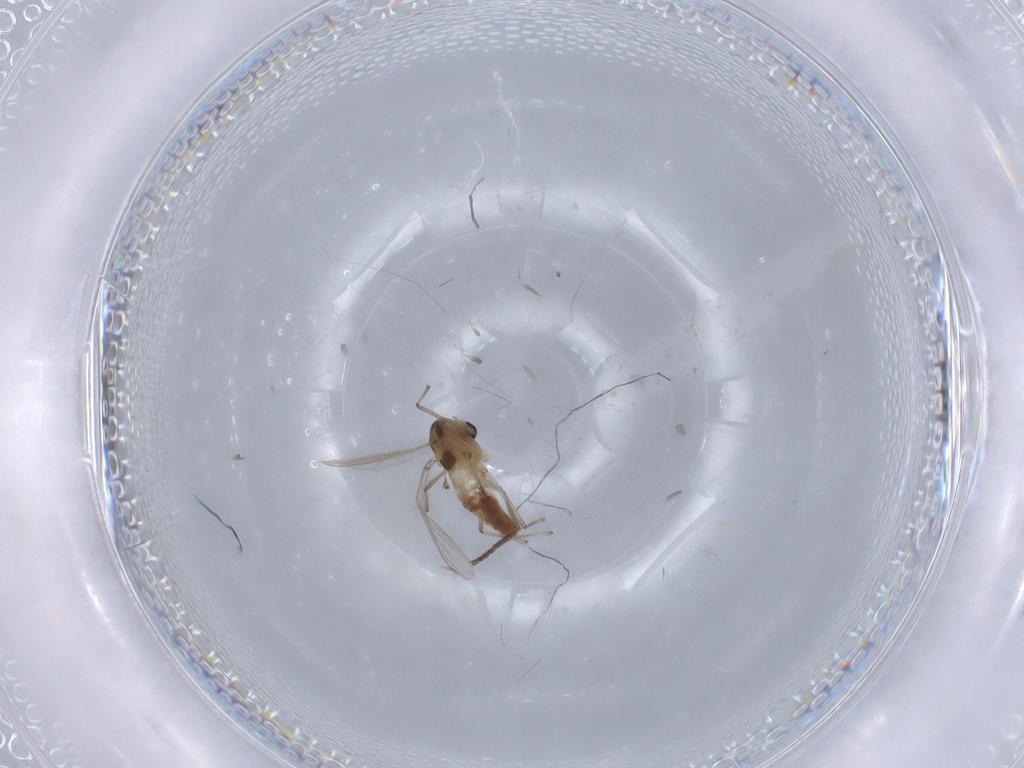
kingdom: Animalia
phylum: Arthropoda
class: Insecta
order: Diptera
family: Chironomidae
